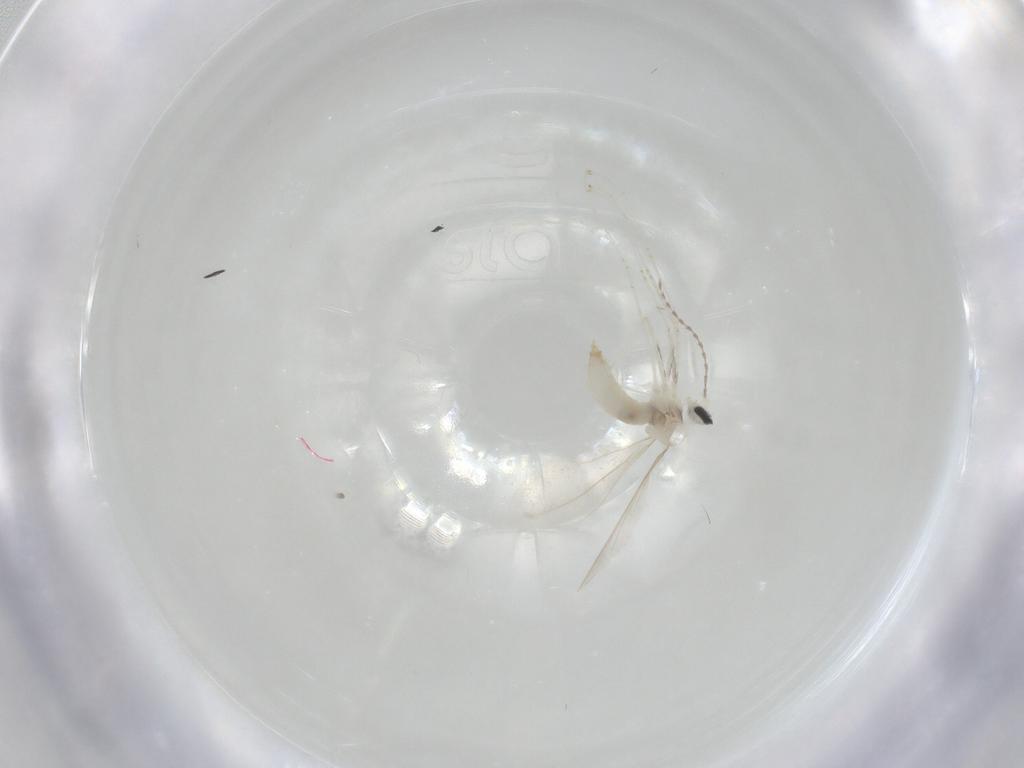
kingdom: Animalia
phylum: Arthropoda
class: Insecta
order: Diptera
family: Cecidomyiidae
